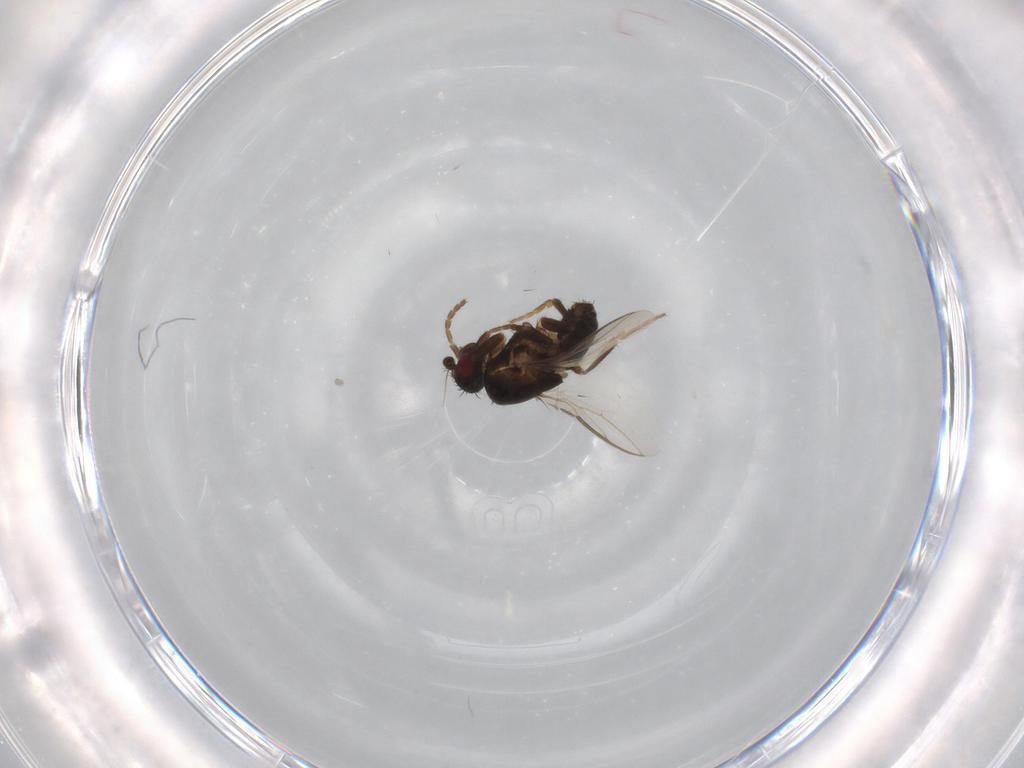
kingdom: Animalia
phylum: Arthropoda
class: Insecta
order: Diptera
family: Sphaeroceridae
